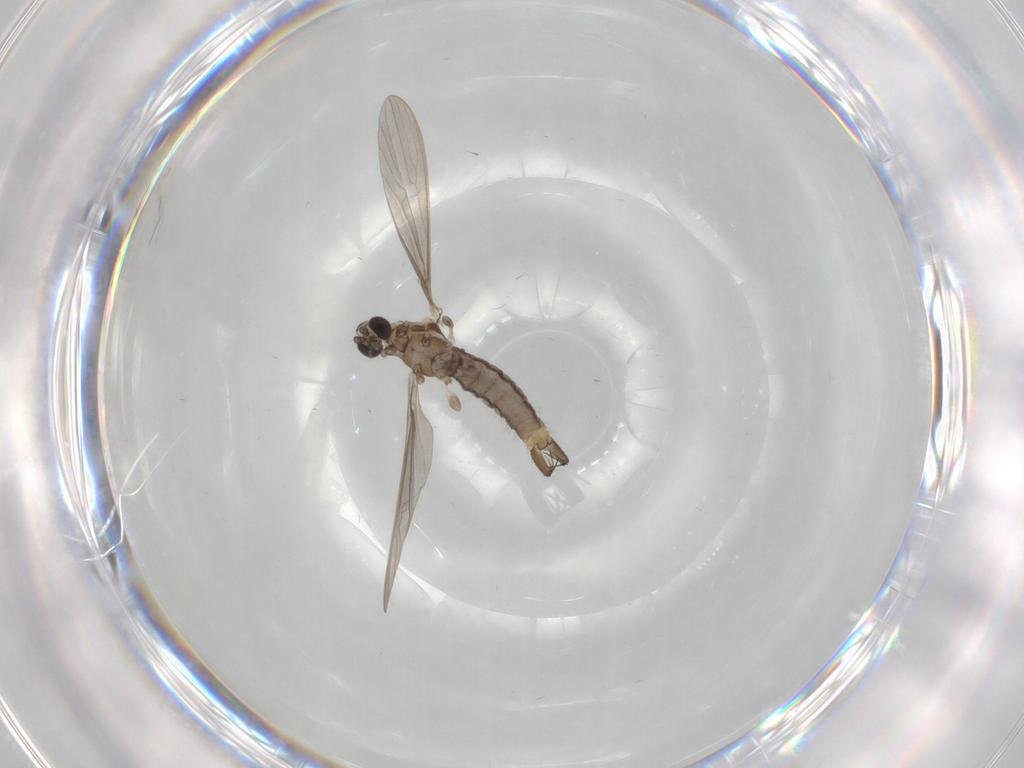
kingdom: Animalia
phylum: Arthropoda
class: Insecta
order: Diptera
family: Limoniidae
